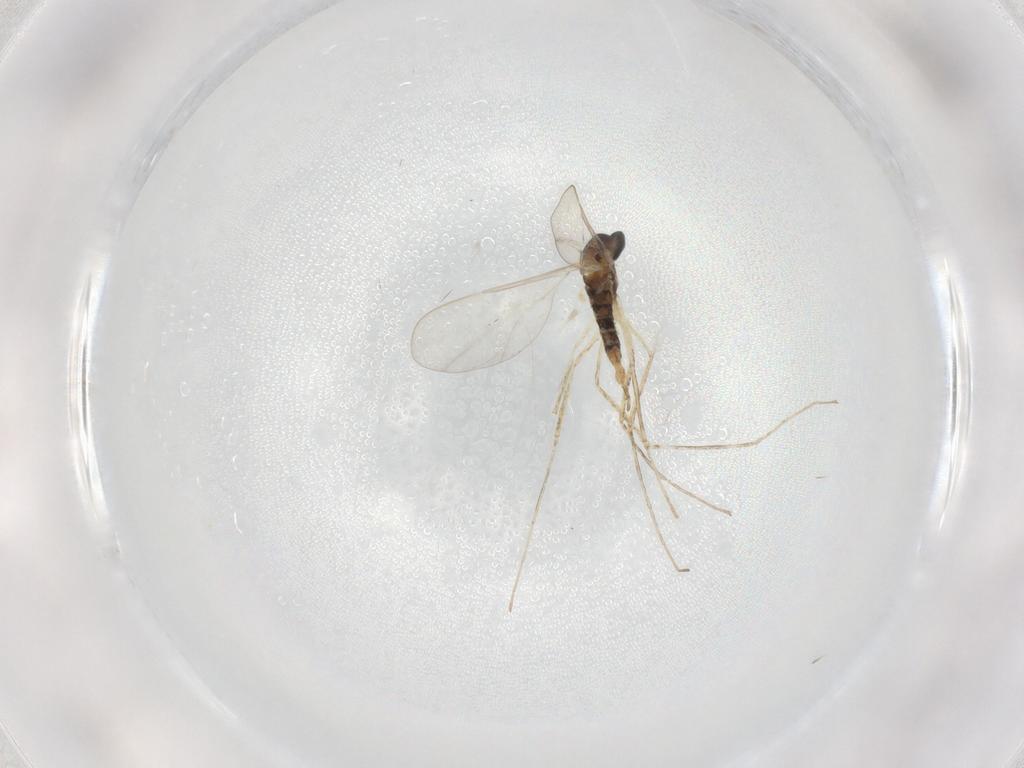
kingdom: Animalia
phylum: Arthropoda
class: Insecta
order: Diptera
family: Cecidomyiidae
